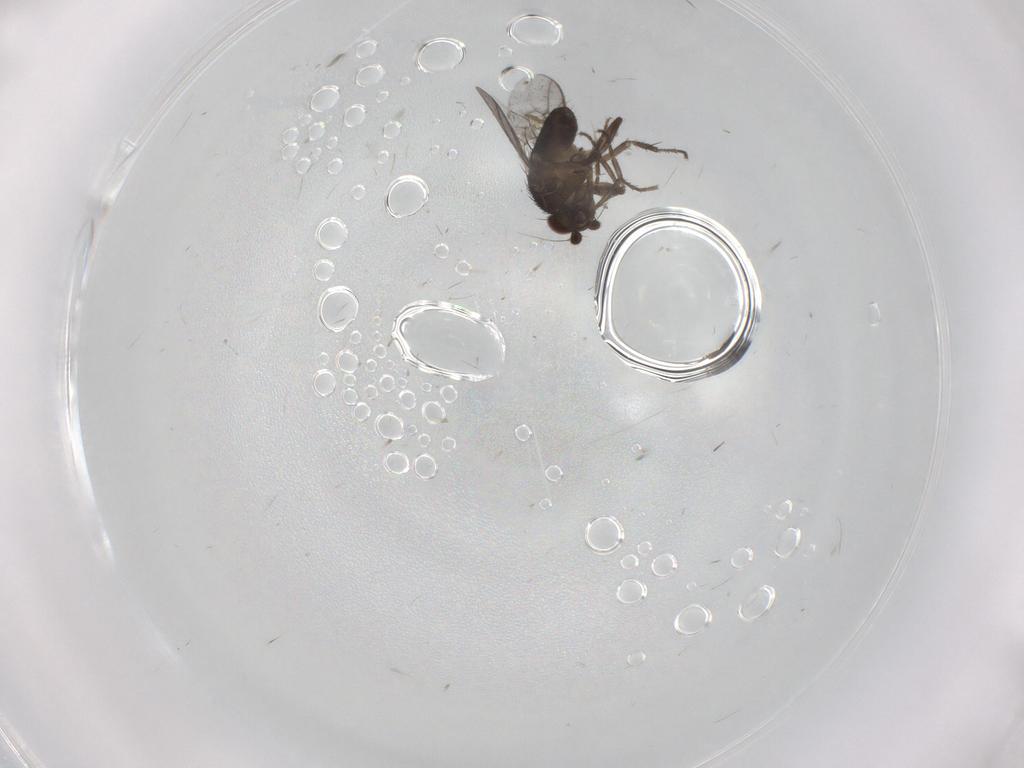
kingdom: Animalia
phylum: Arthropoda
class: Insecta
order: Diptera
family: Sphaeroceridae
